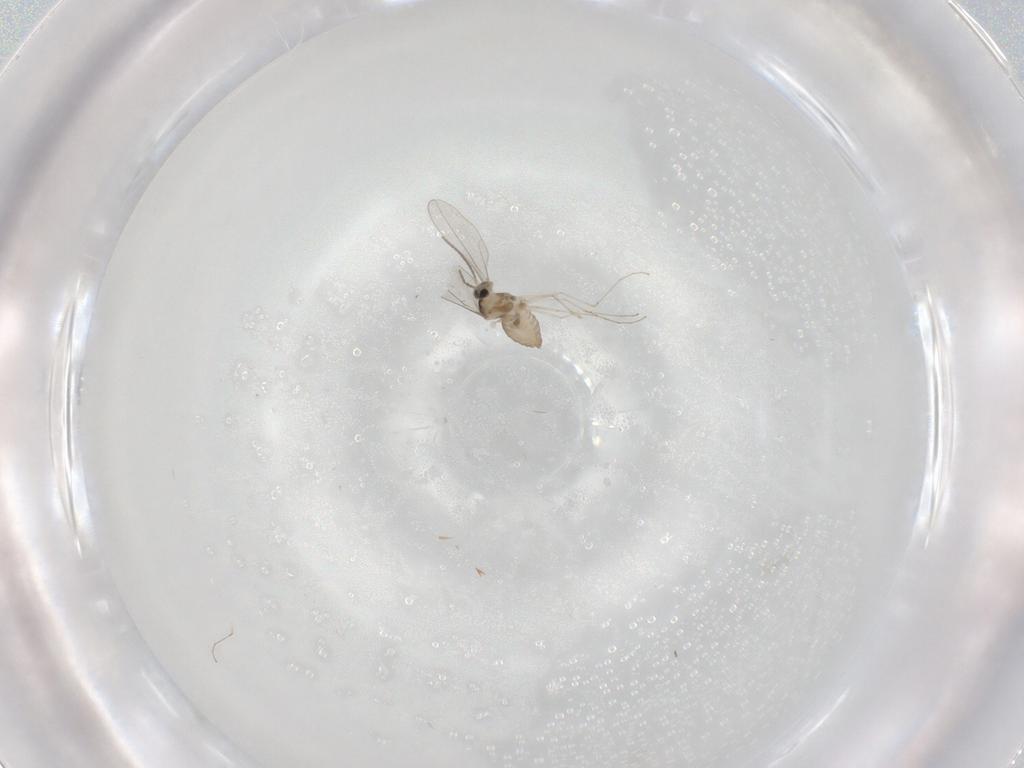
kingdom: Animalia
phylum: Arthropoda
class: Insecta
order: Diptera
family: Cecidomyiidae
